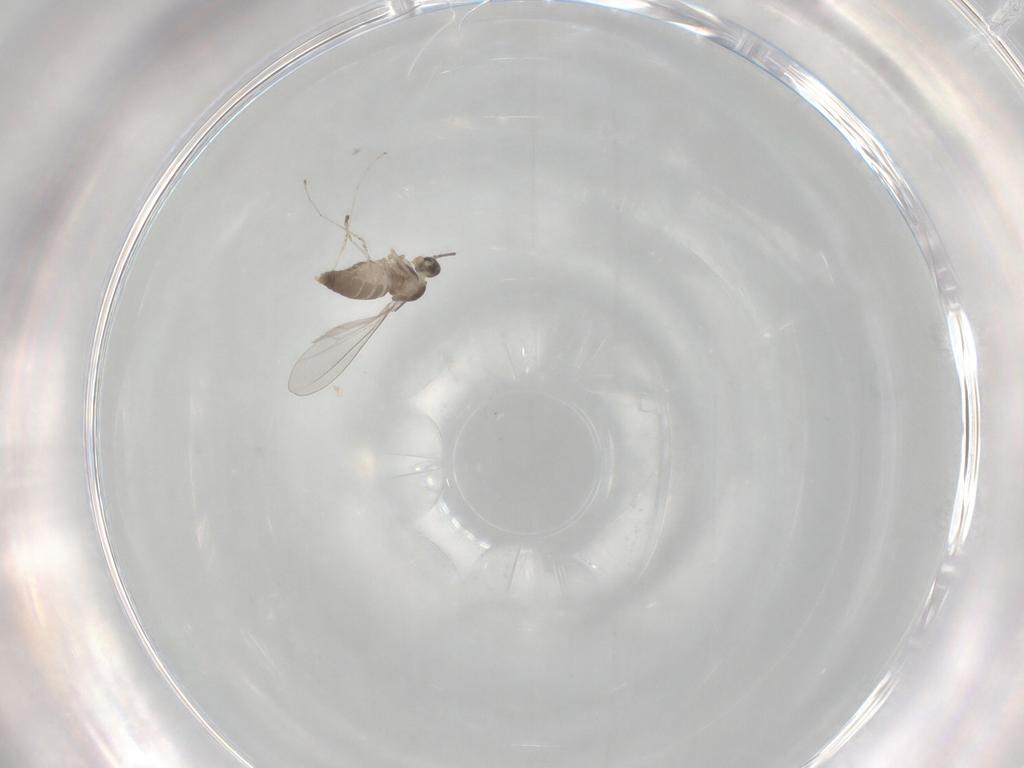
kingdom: Animalia
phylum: Arthropoda
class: Insecta
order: Diptera
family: Cecidomyiidae
